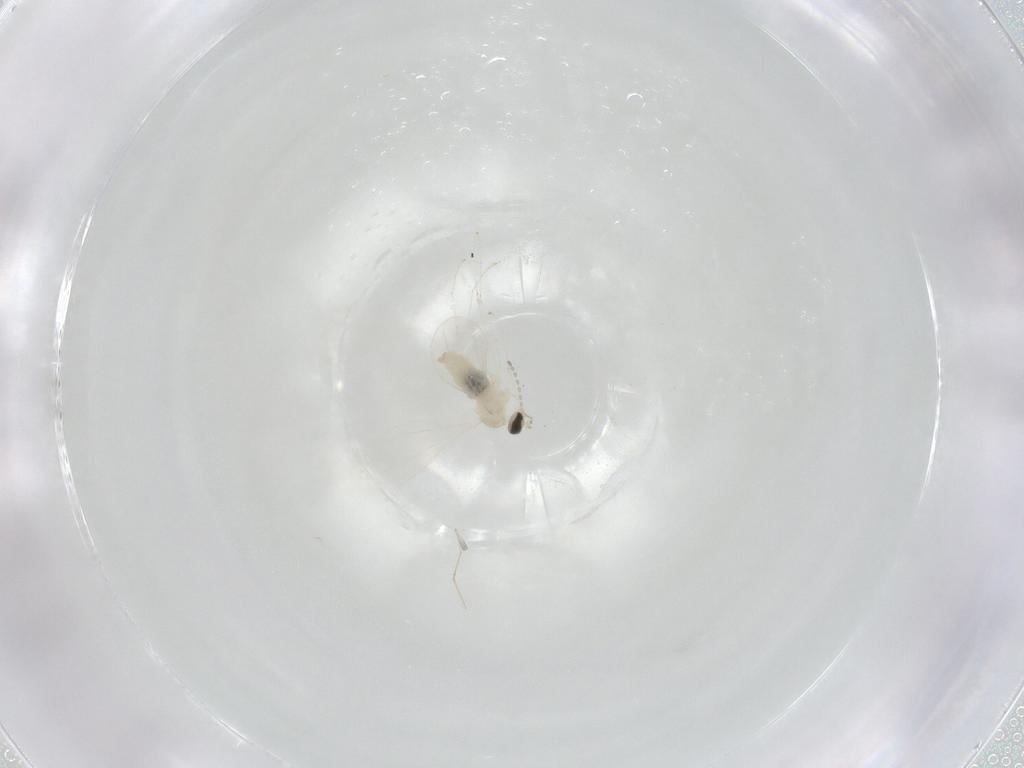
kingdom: Animalia
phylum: Arthropoda
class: Insecta
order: Diptera
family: Cecidomyiidae
